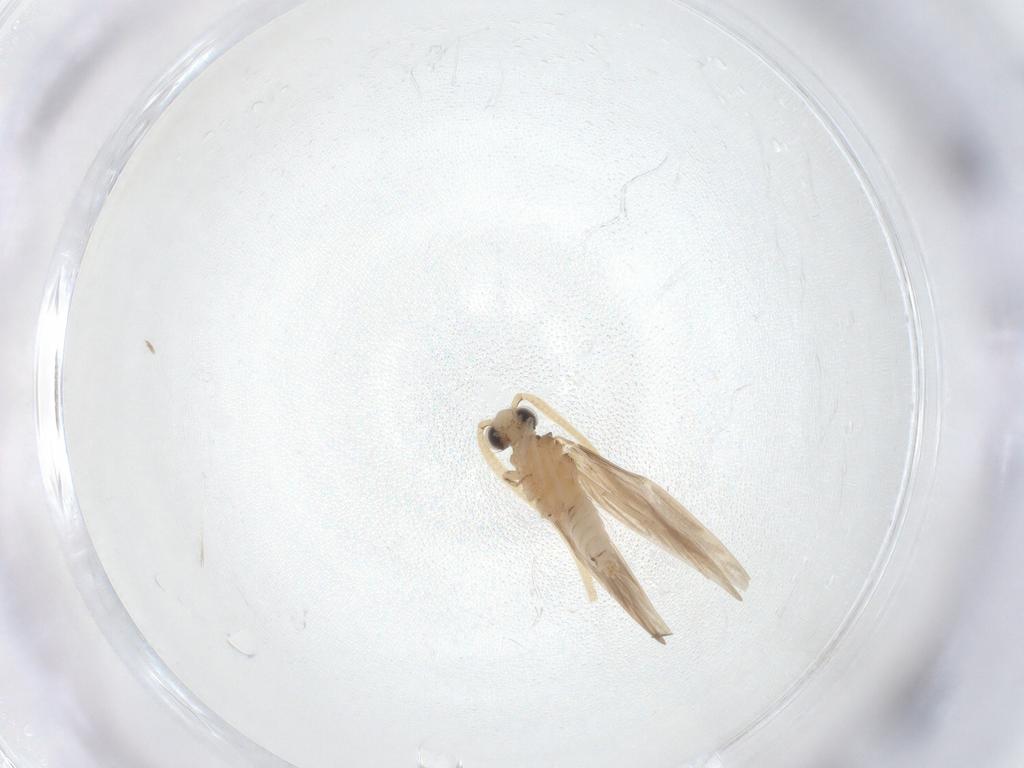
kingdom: Animalia
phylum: Arthropoda
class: Insecta
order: Trichoptera
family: Hydroptilidae
